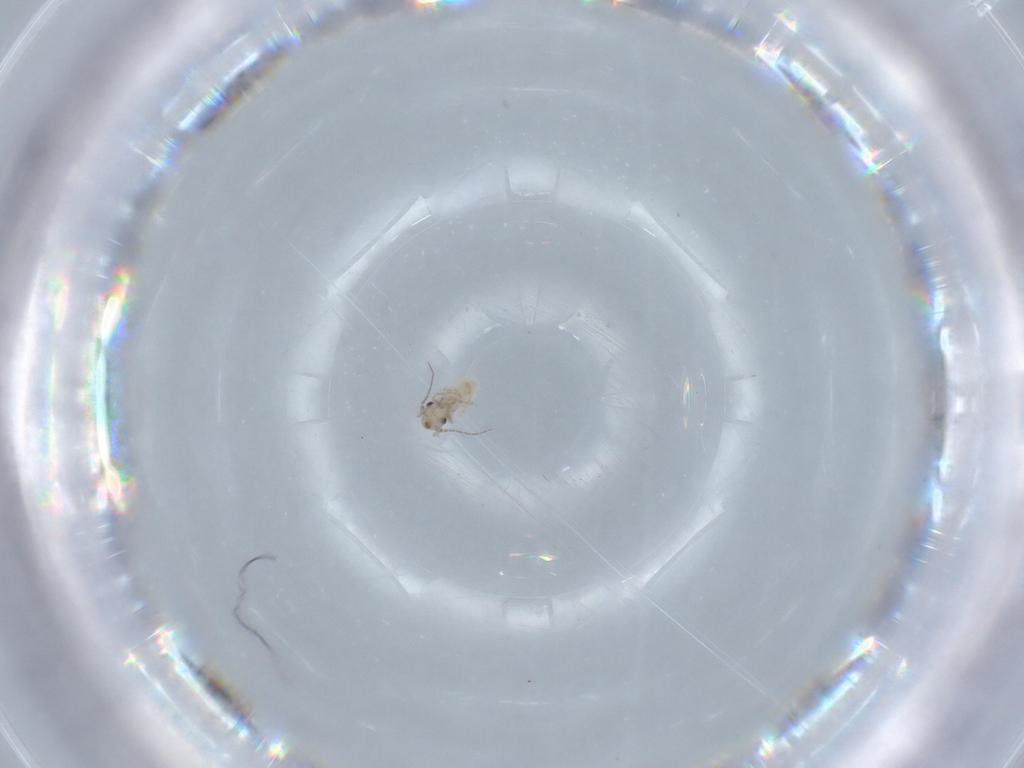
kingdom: Animalia
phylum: Arthropoda
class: Insecta
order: Psocodea
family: Lepidopsocidae
